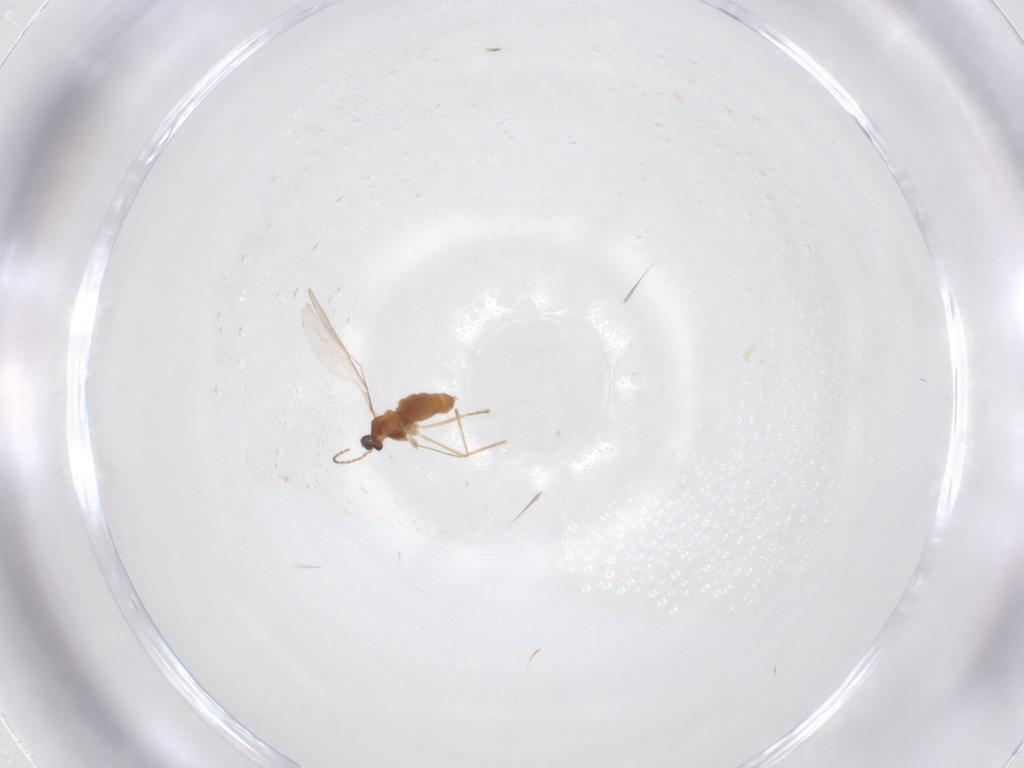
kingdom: Animalia
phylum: Arthropoda
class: Insecta
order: Diptera
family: Cecidomyiidae
